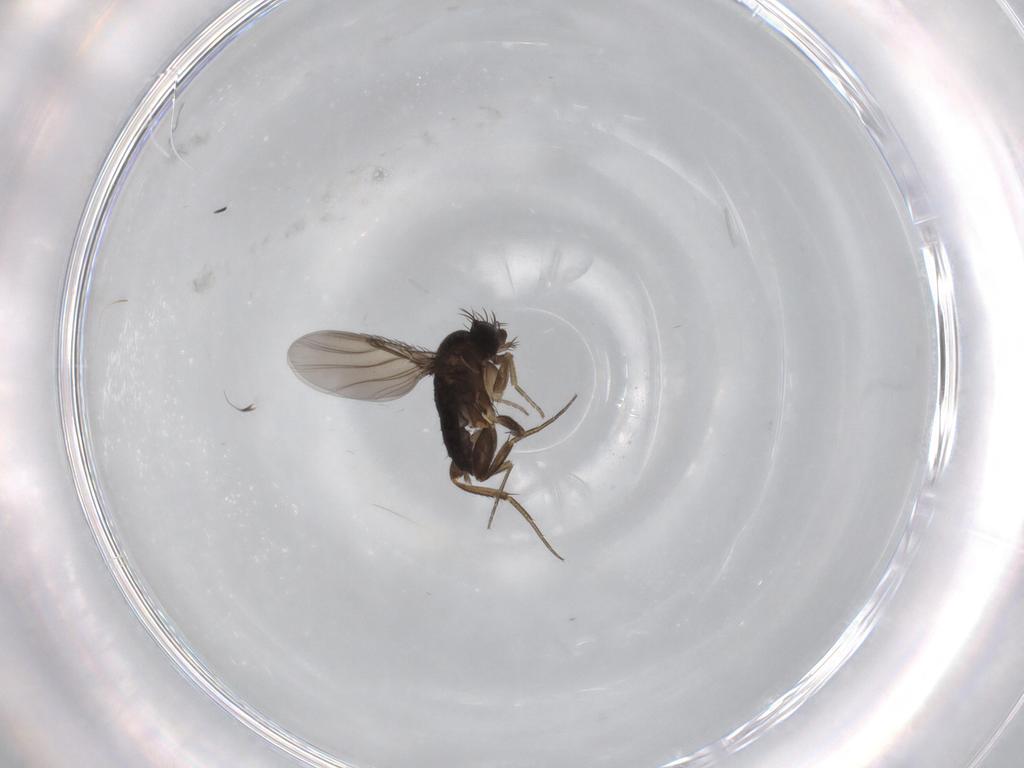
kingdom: Animalia
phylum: Arthropoda
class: Insecta
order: Diptera
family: Phoridae
